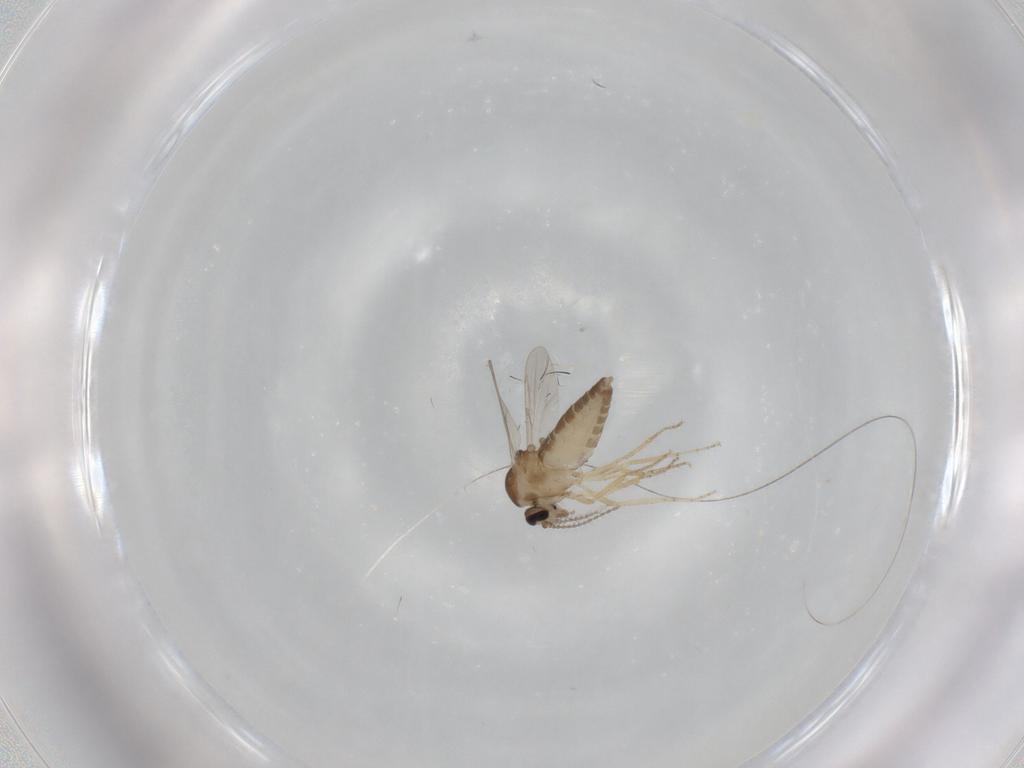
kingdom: Animalia
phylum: Arthropoda
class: Insecta
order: Diptera
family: Ceratopogonidae
